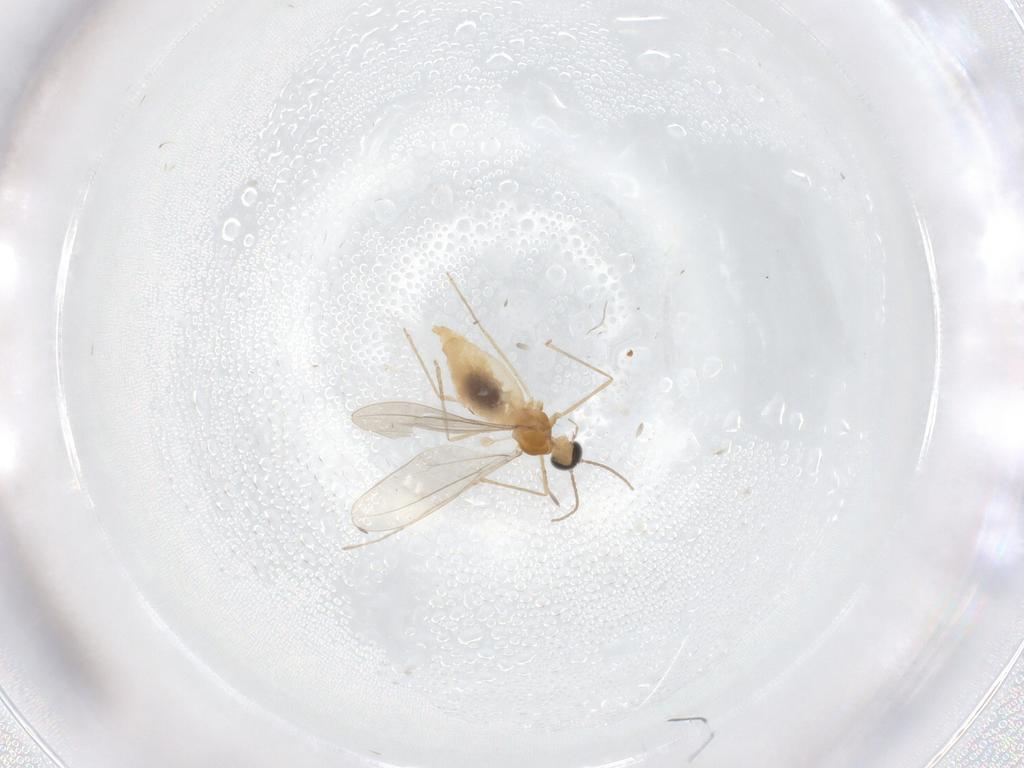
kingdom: Animalia
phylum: Arthropoda
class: Insecta
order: Diptera
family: Cecidomyiidae
